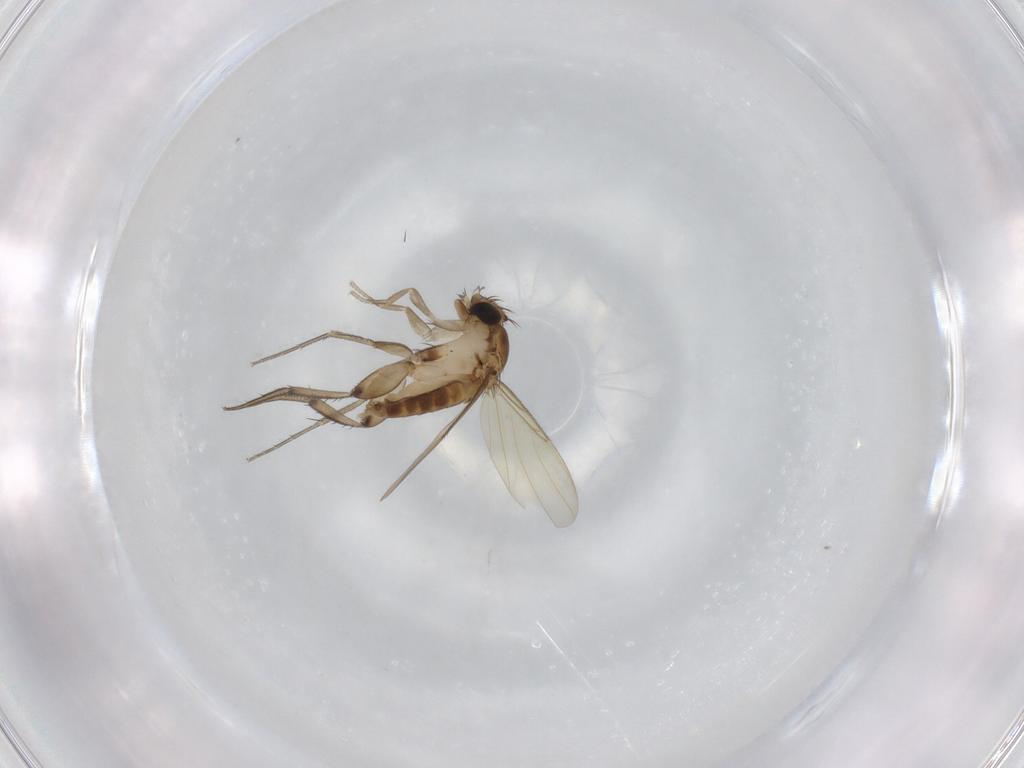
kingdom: Animalia
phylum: Arthropoda
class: Insecta
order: Diptera
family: Phoridae
